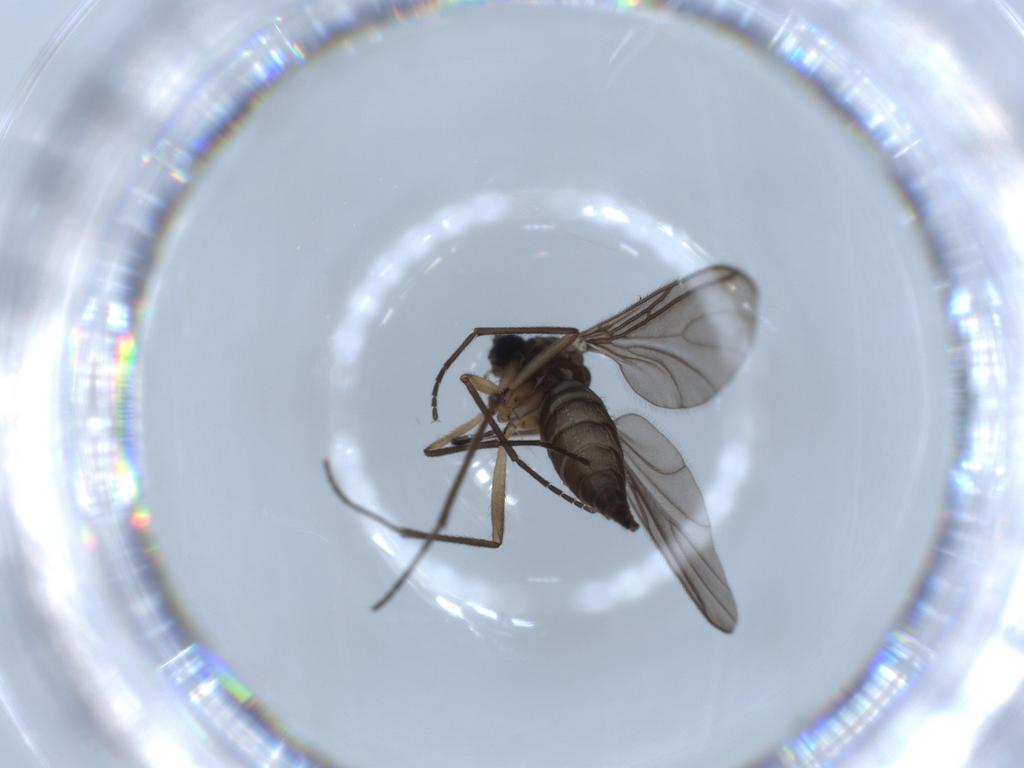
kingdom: Animalia
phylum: Arthropoda
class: Insecta
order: Diptera
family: Sciaridae
